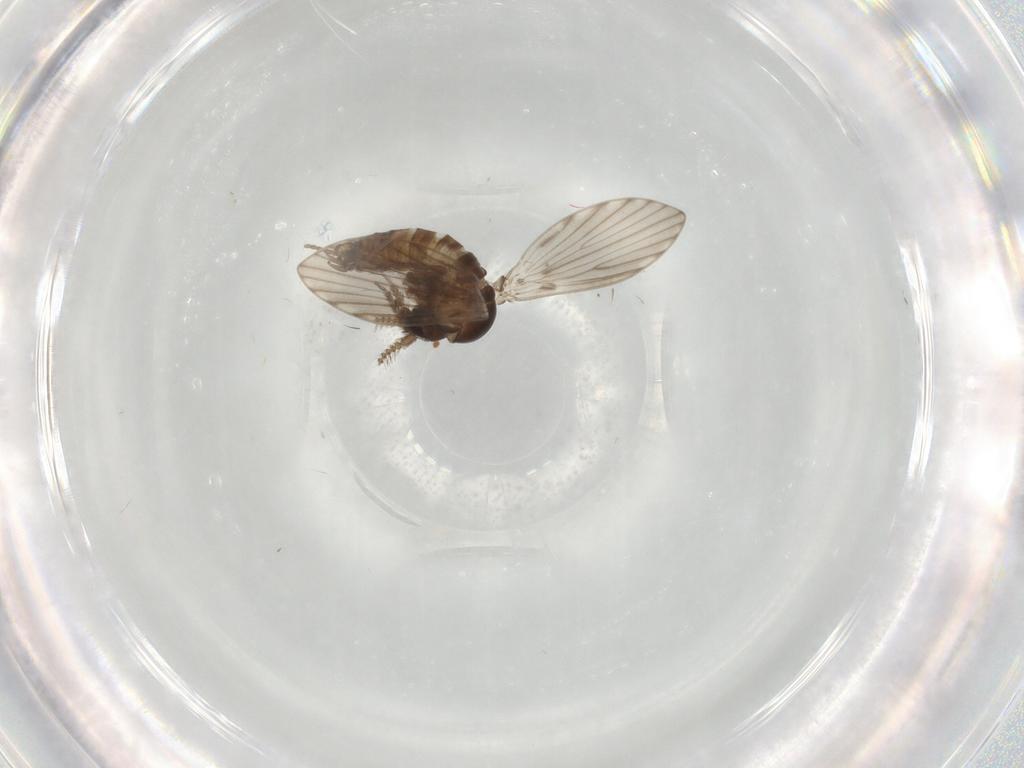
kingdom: Animalia
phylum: Arthropoda
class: Insecta
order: Diptera
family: Psychodidae
